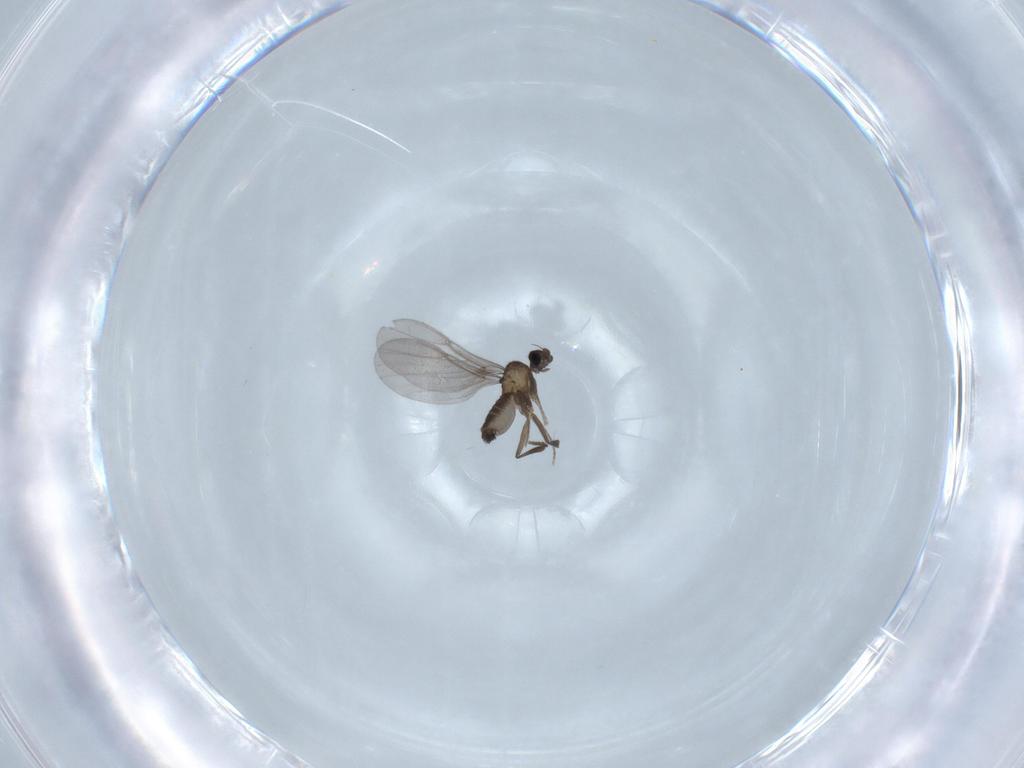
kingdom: Animalia
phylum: Arthropoda
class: Insecta
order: Diptera
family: Phoridae
